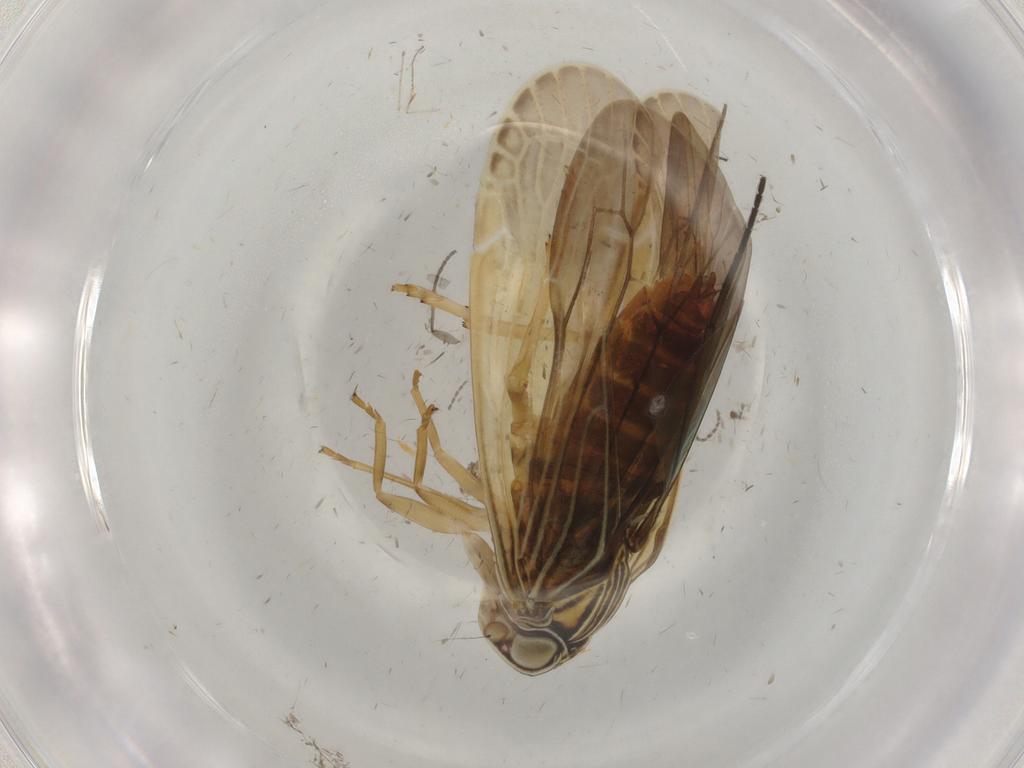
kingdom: Animalia
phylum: Arthropoda
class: Insecta
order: Hemiptera
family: Achilidae
